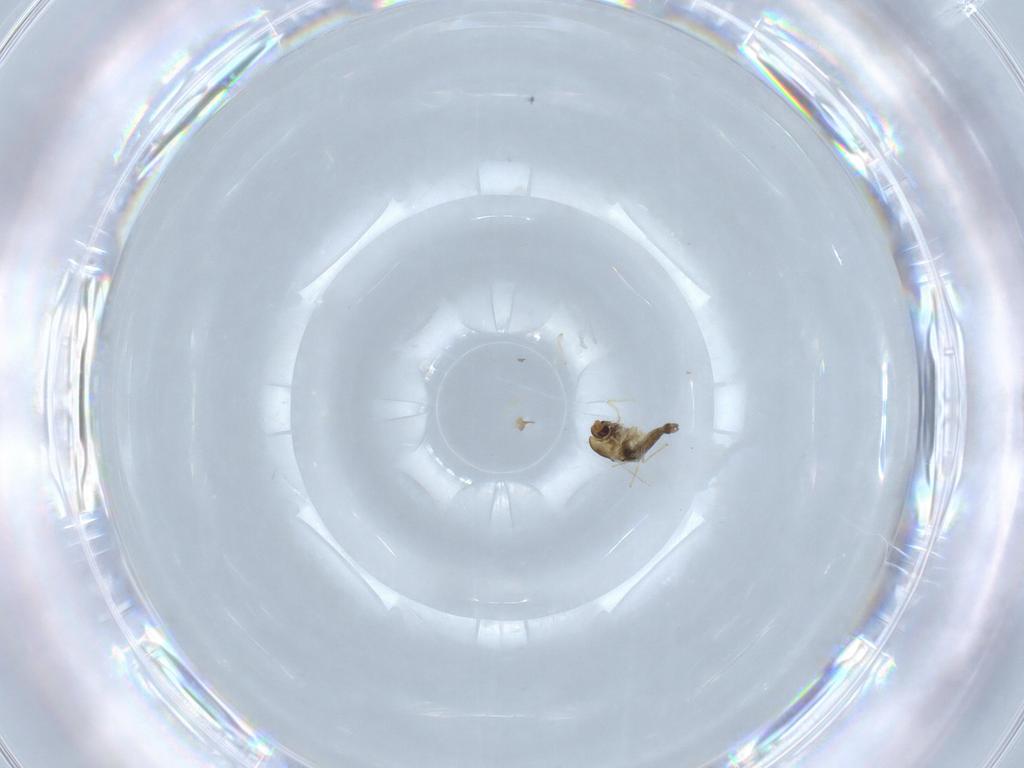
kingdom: Animalia
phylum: Arthropoda
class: Insecta
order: Diptera
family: Chironomidae
